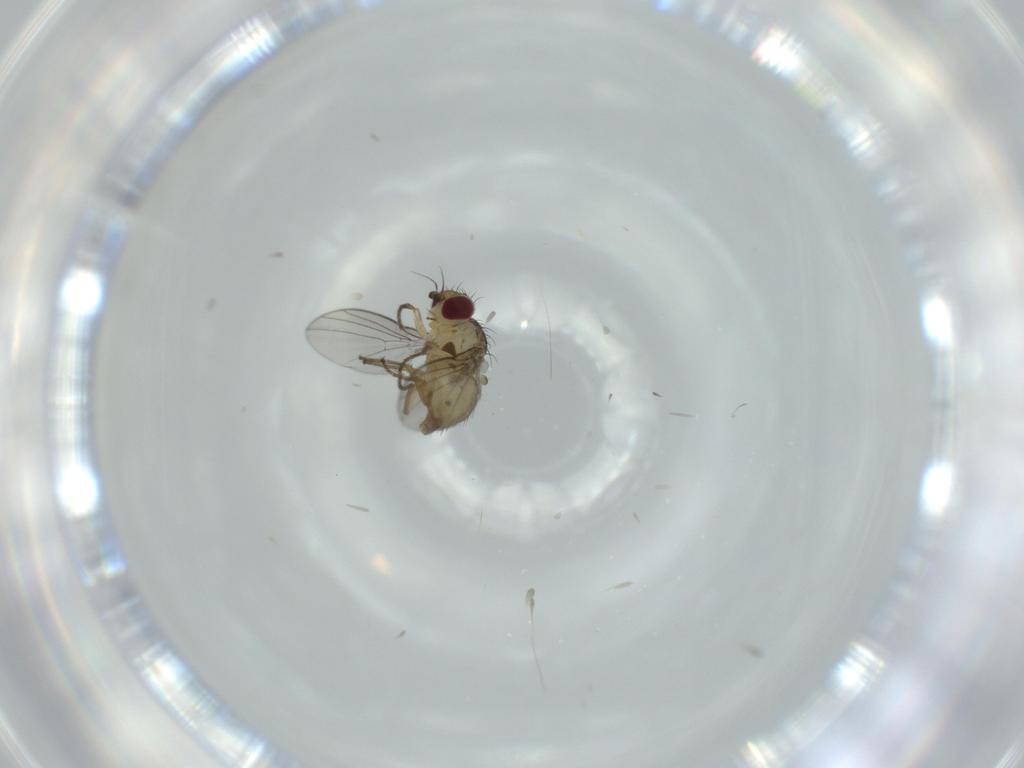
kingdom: Animalia
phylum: Arthropoda
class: Insecta
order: Diptera
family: Agromyzidae
